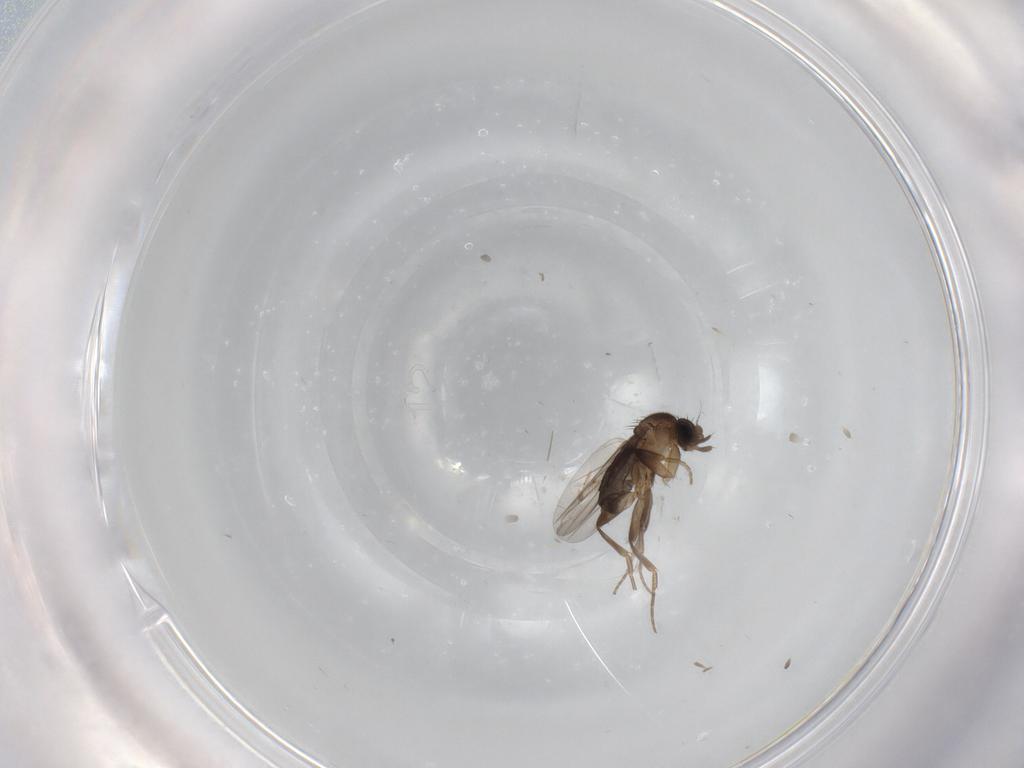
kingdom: Animalia
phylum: Arthropoda
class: Insecta
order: Diptera
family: Phoridae
